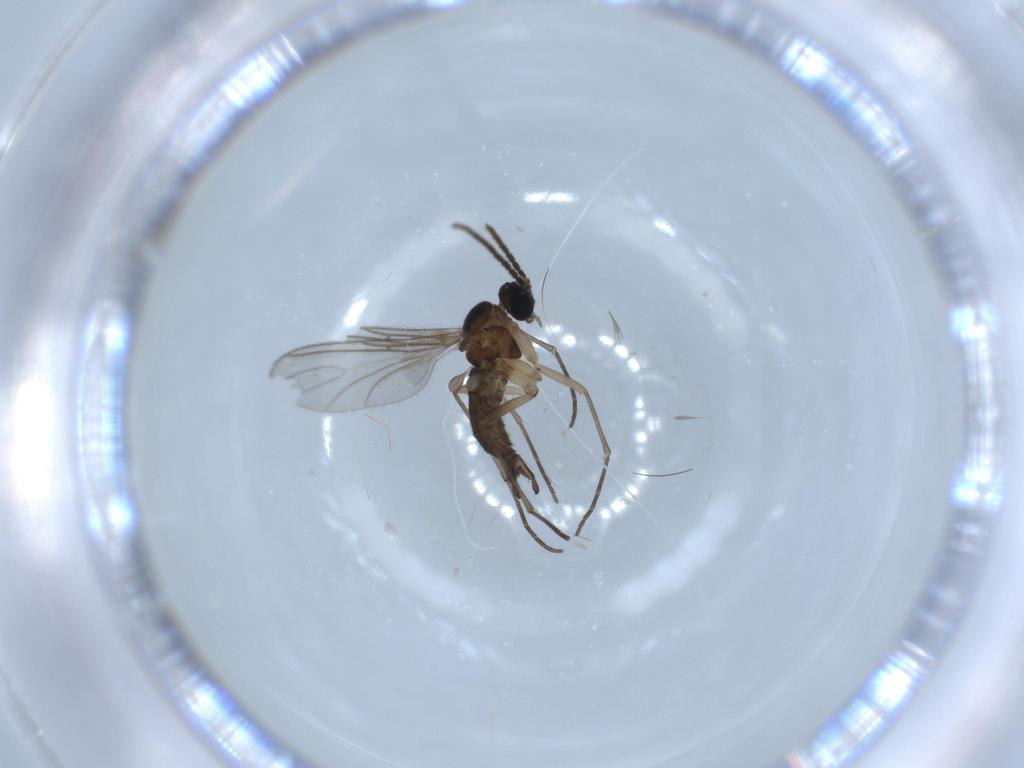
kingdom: Animalia
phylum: Arthropoda
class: Insecta
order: Diptera
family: Sciaridae
